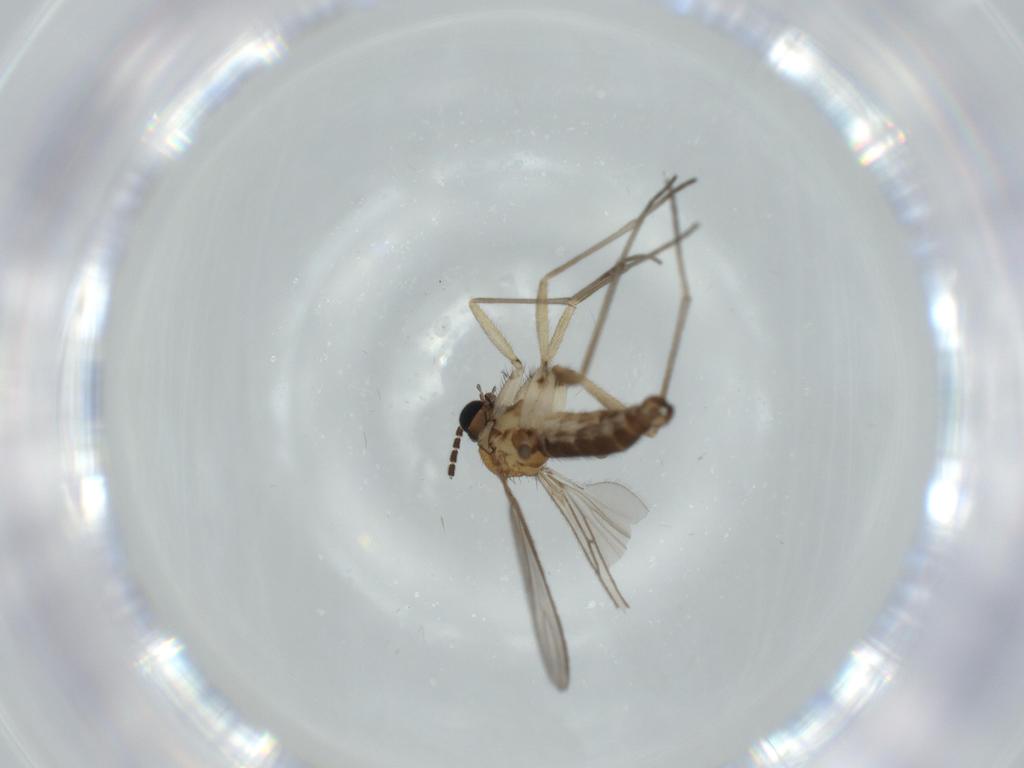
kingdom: Animalia
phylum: Arthropoda
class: Insecta
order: Diptera
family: Sciaridae
